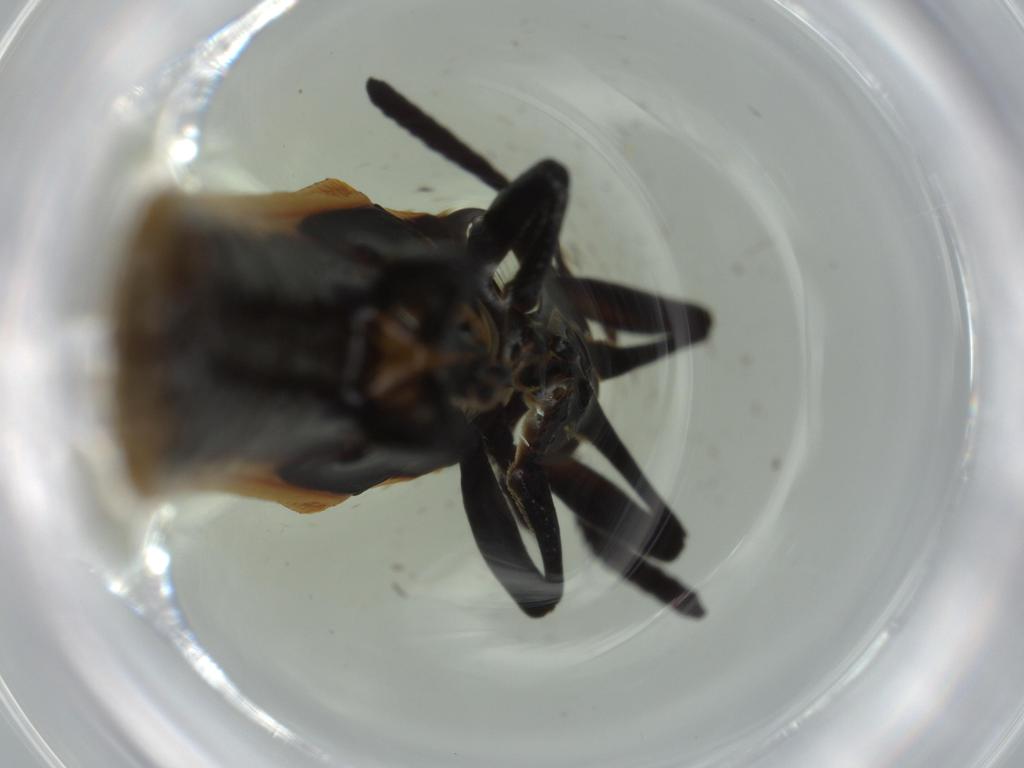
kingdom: Animalia
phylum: Arthropoda
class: Insecta
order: Coleoptera
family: Chrysomelidae
